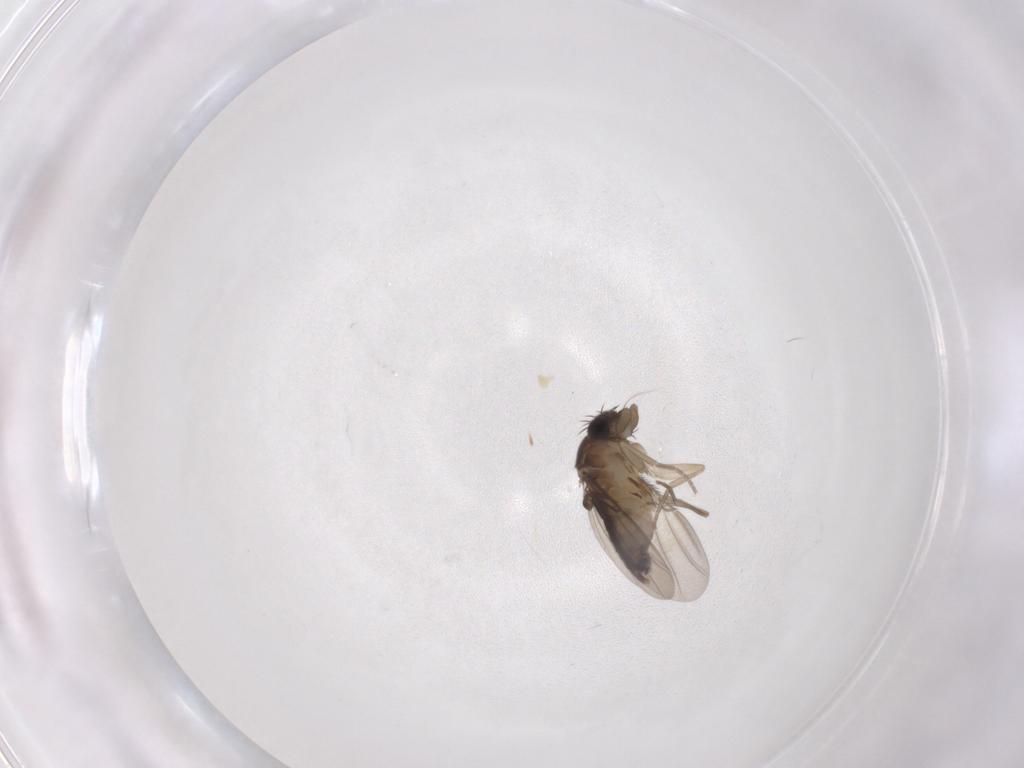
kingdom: Animalia
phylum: Arthropoda
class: Insecta
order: Diptera
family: Phoridae
